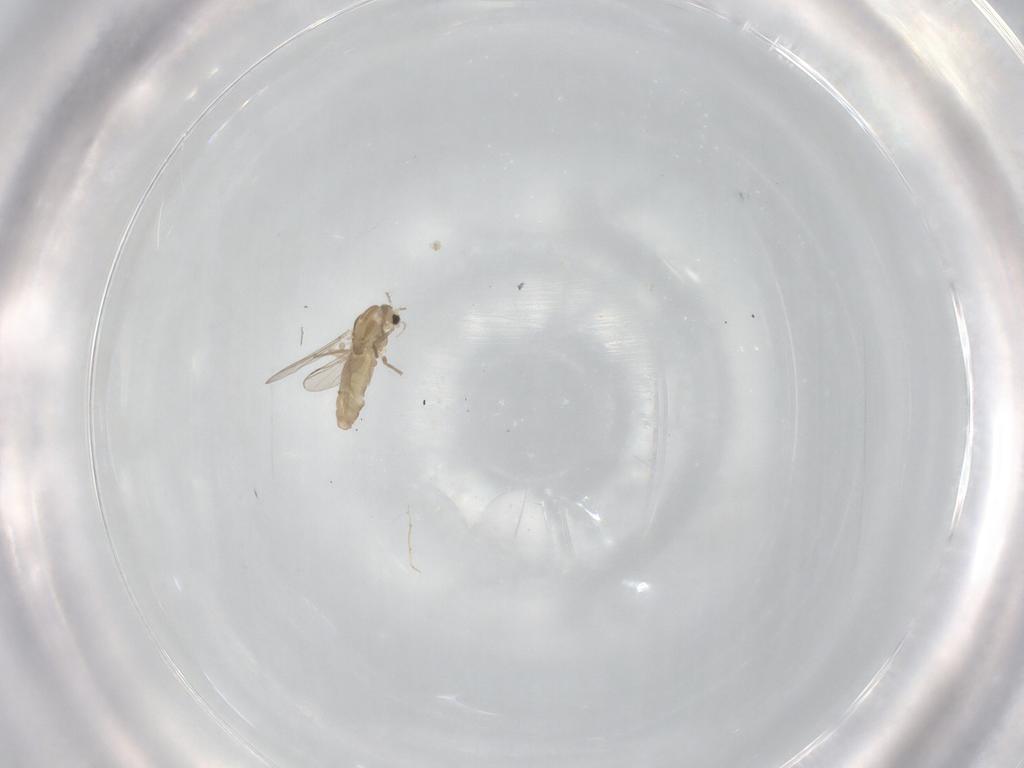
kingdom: Animalia
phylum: Arthropoda
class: Insecta
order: Diptera
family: Chironomidae
